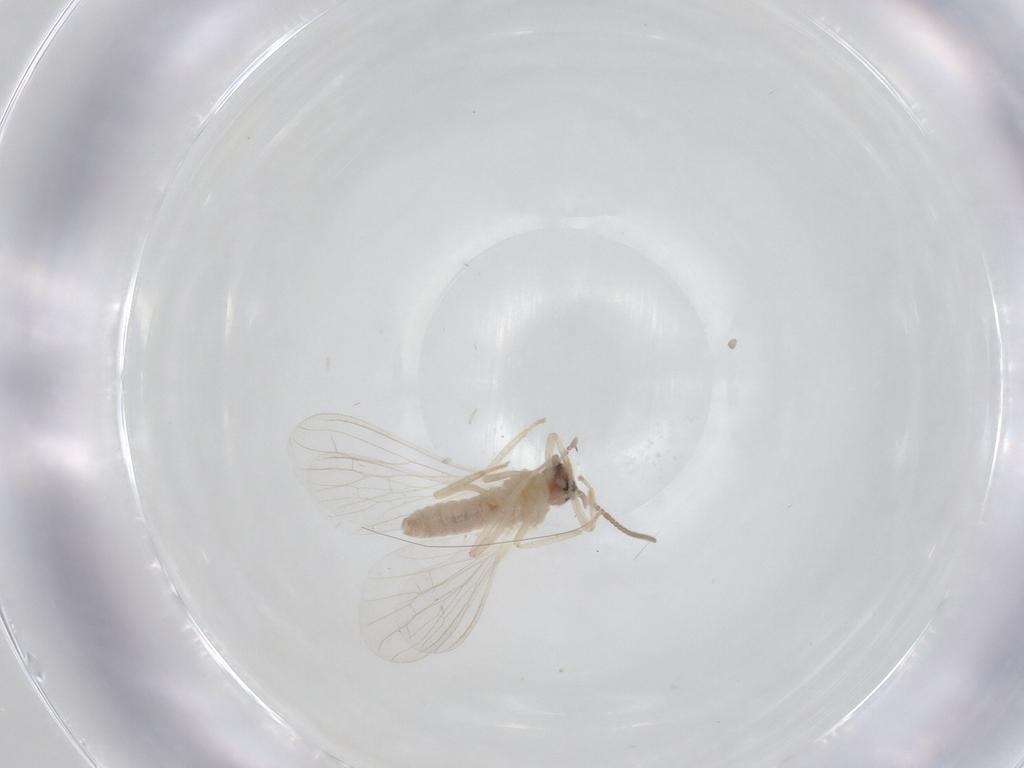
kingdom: Animalia
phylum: Arthropoda
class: Insecta
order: Neuroptera
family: Coniopterygidae
